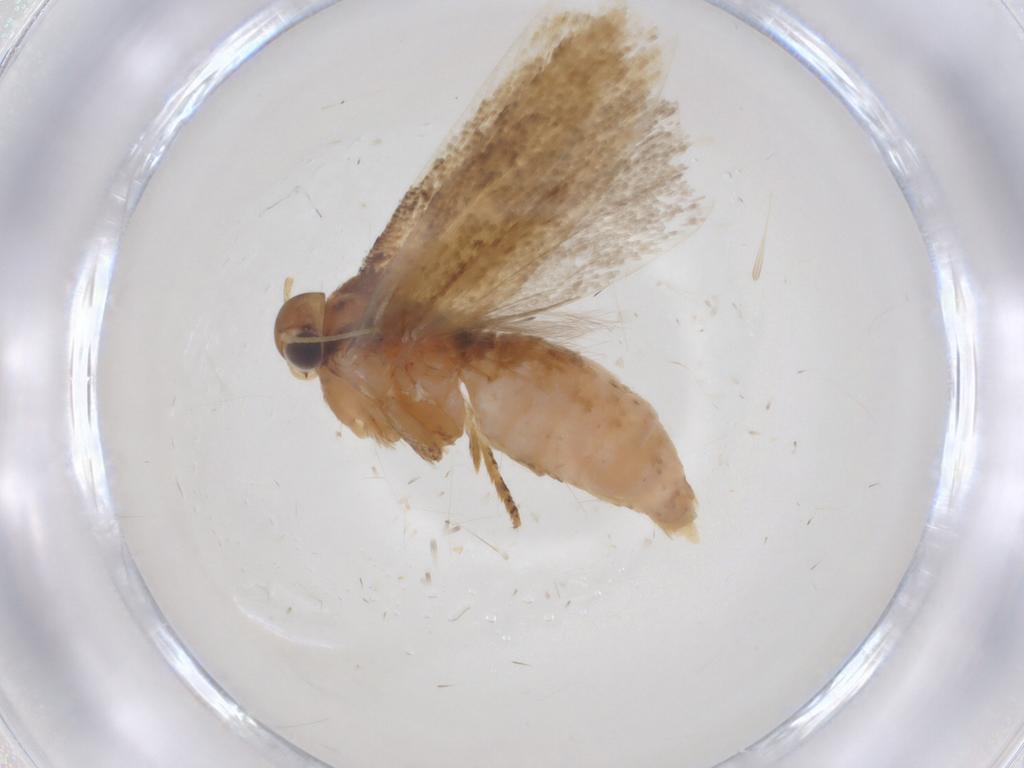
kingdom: Animalia
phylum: Arthropoda
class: Insecta
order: Lepidoptera
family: Gelechiidae
